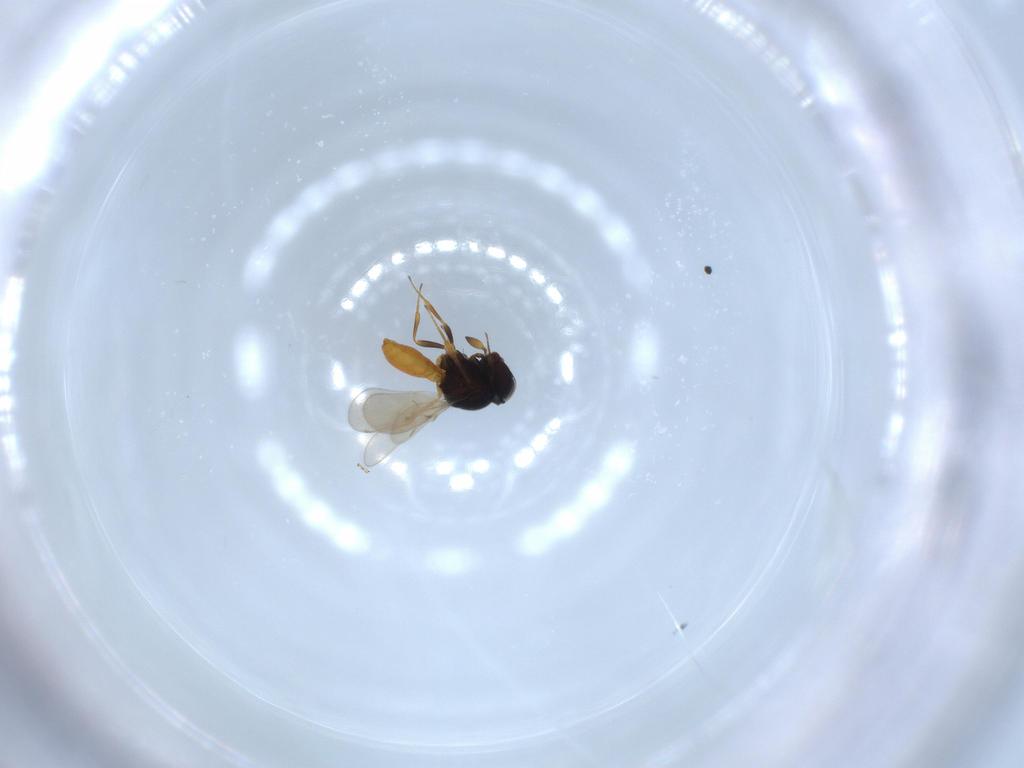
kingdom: Animalia
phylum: Arthropoda
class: Insecta
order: Hymenoptera
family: Scelionidae
